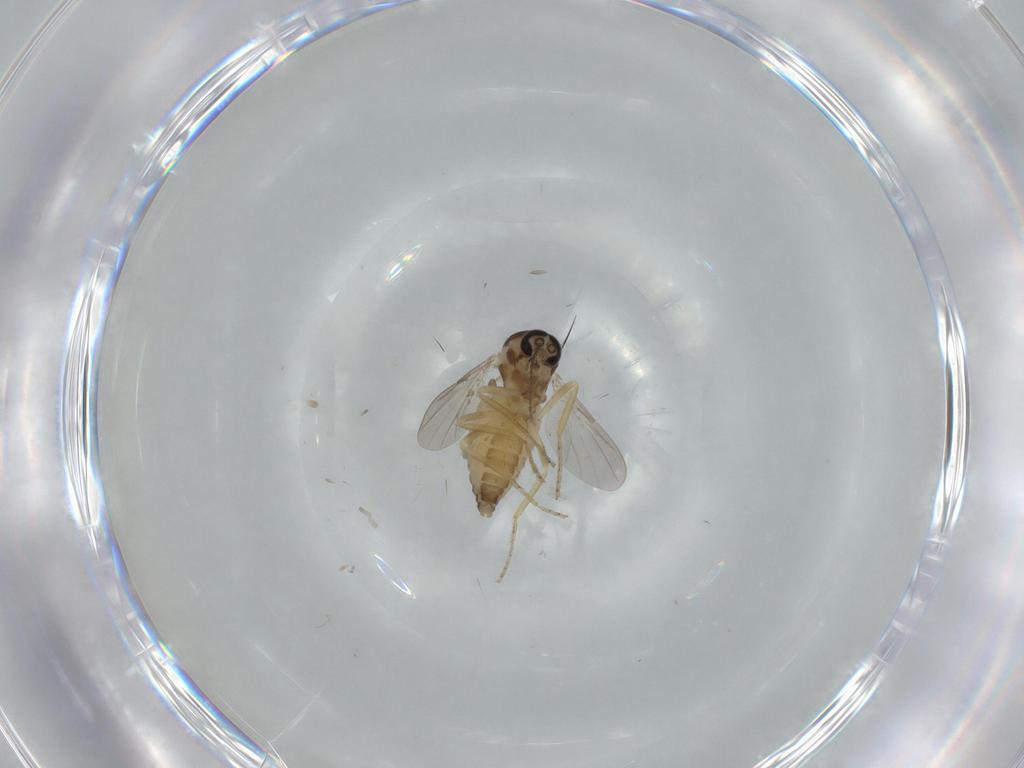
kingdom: Animalia
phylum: Arthropoda
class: Insecta
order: Diptera
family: Ceratopogonidae
